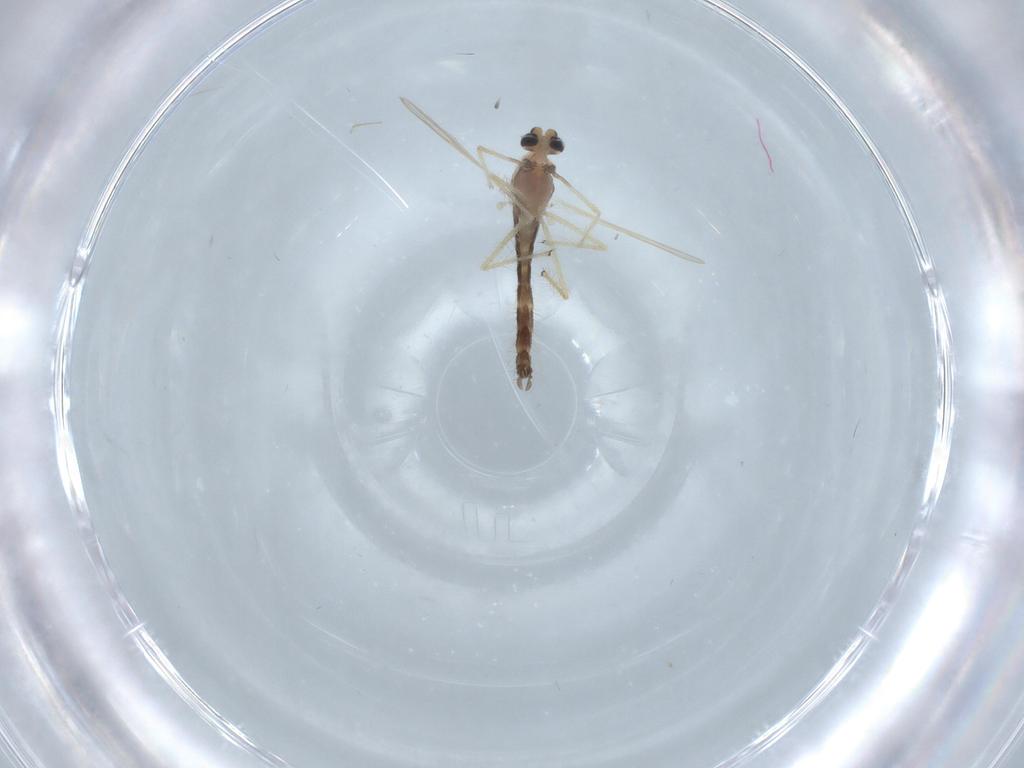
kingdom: Animalia
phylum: Arthropoda
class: Insecta
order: Diptera
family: Chironomidae
